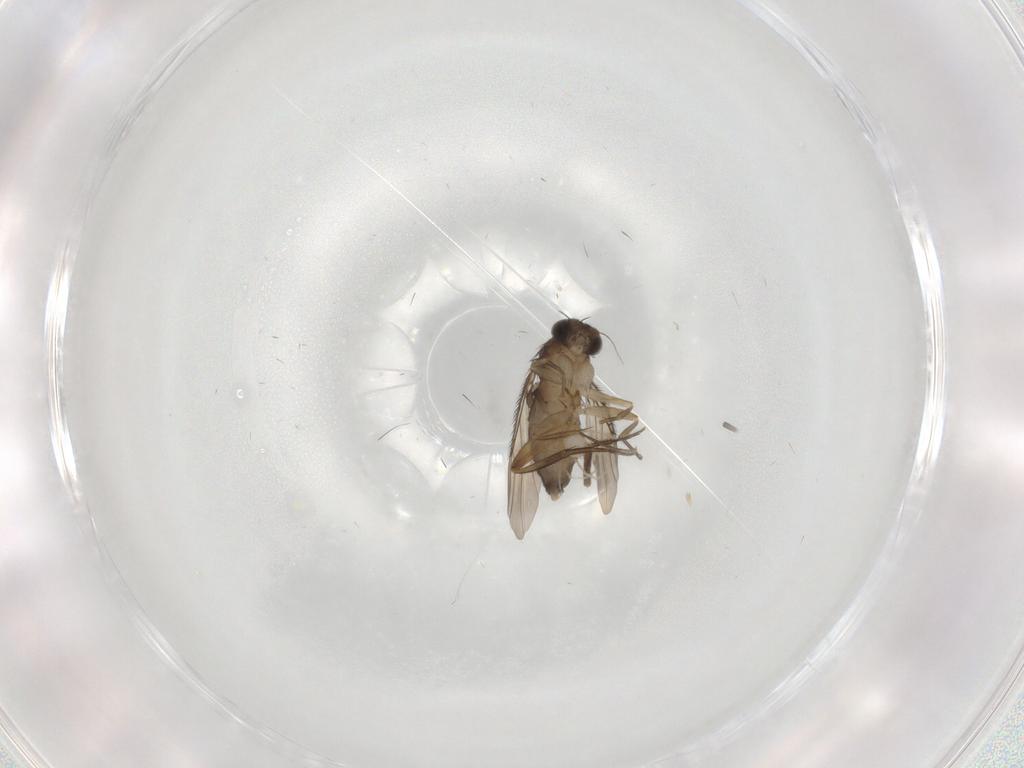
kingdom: Animalia
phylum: Arthropoda
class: Insecta
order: Diptera
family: Phoridae
